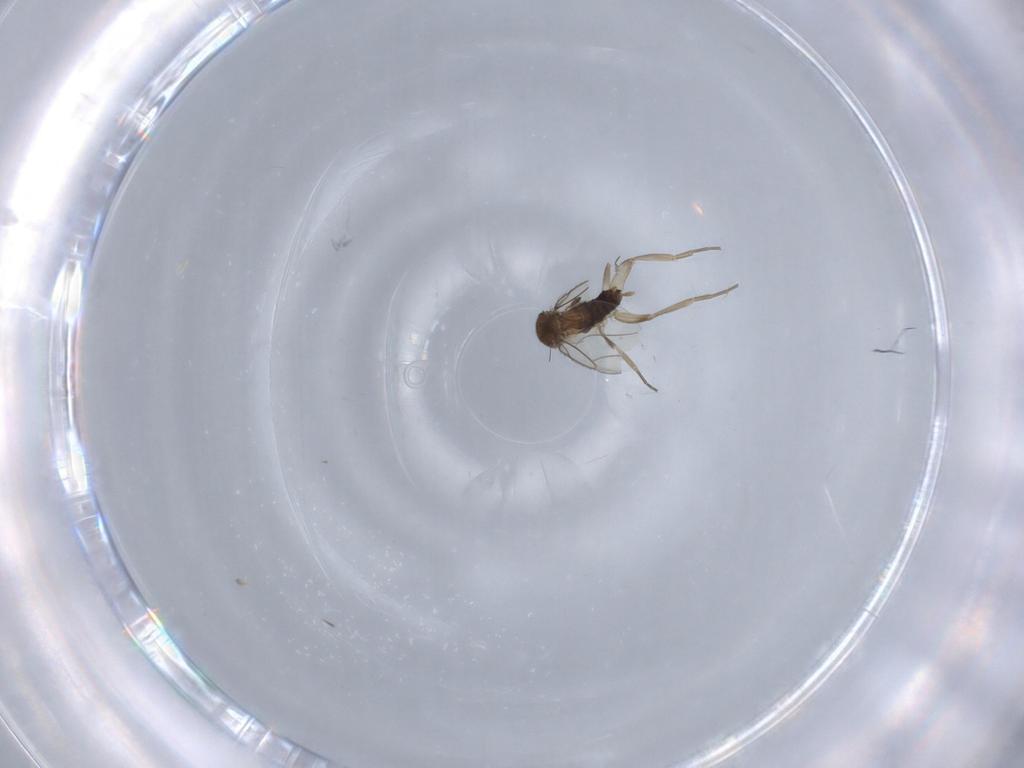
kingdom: Animalia
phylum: Arthropoda
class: Insecta
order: Diptera
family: Phoridae
